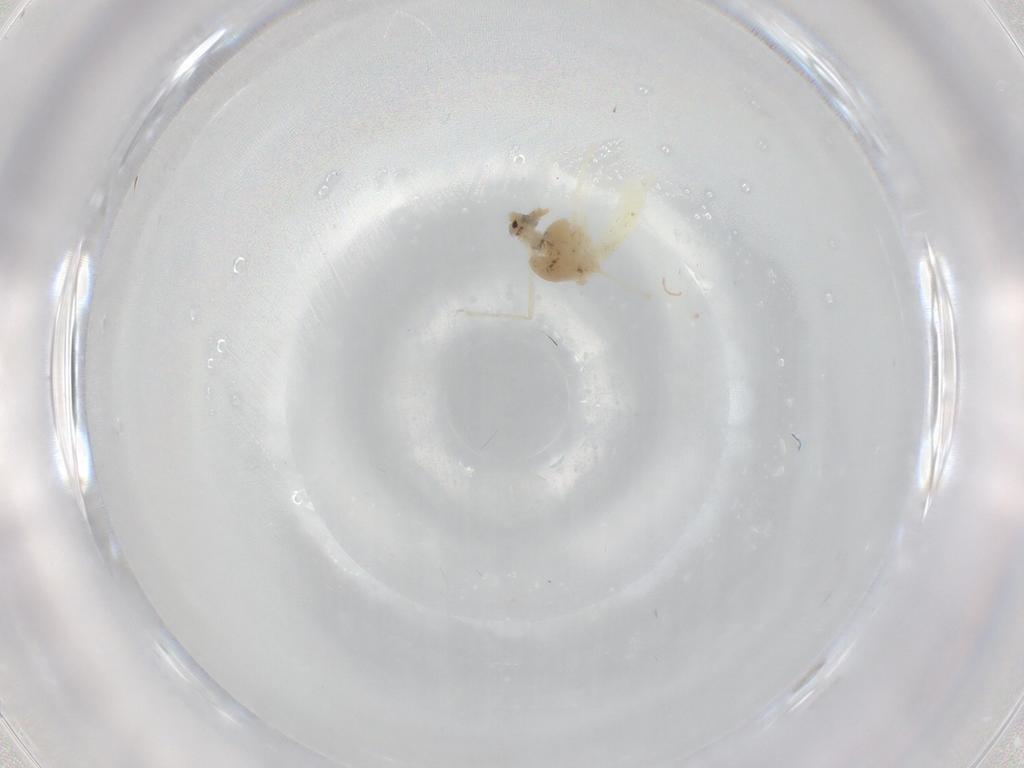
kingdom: Animalia
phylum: Arthropoda
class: Insecta
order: Diptera
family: Chironomidae
